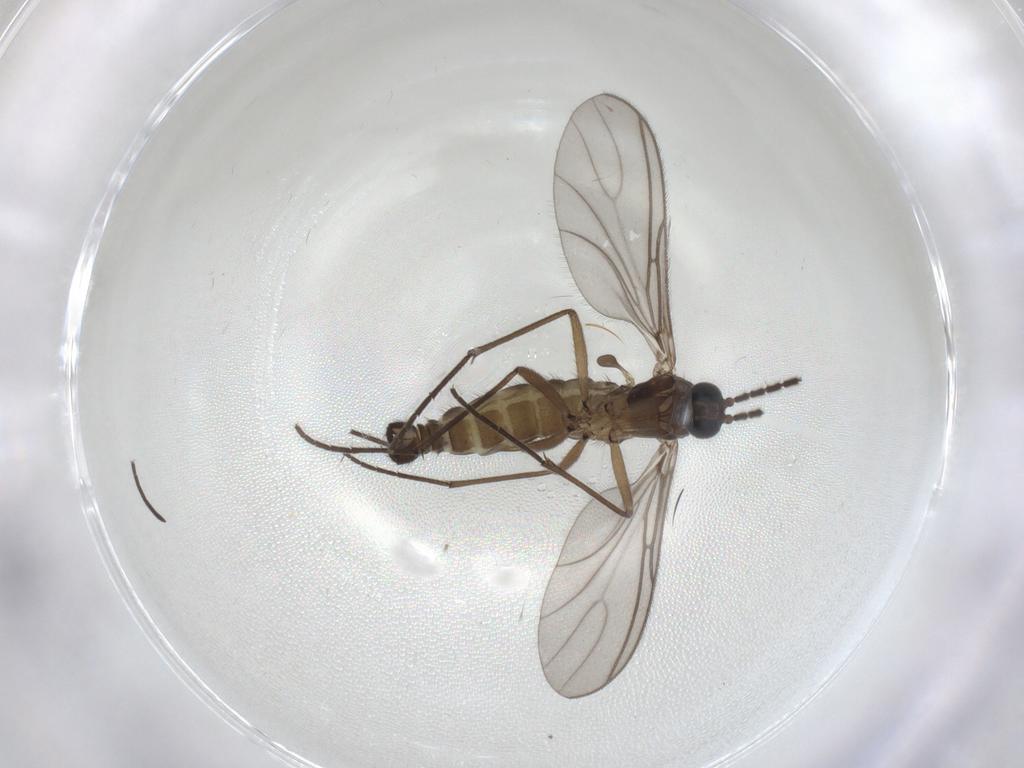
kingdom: Animalia
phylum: Arthropoda
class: Insecta
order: Diptera
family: Sciaridae
